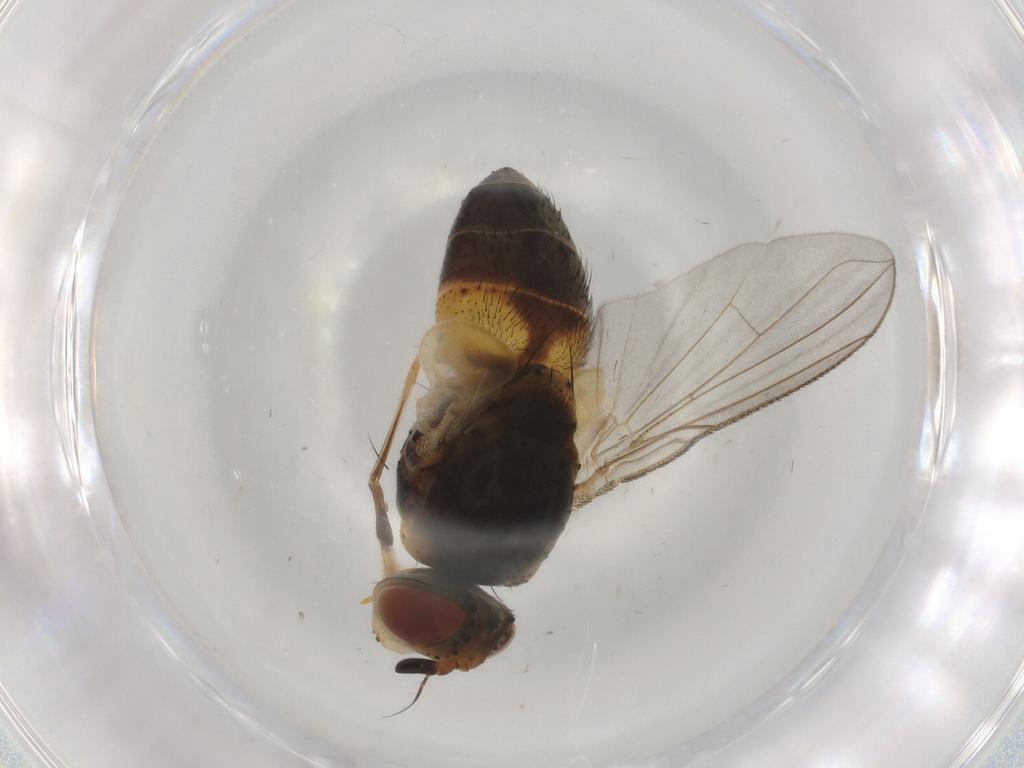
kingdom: Animalia
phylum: Arthropoda
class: Insecta
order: Diptera
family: Tachinidae
